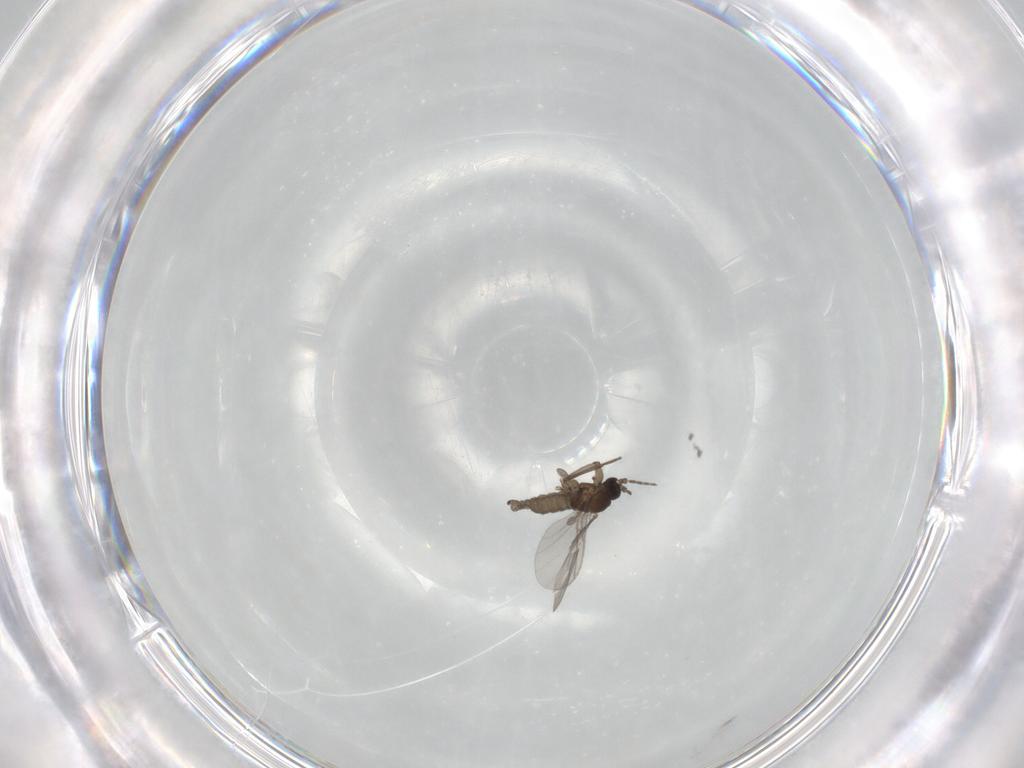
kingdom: Animalia
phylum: Arthropoda
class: Insecta
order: Diptera
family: Sciaridae
